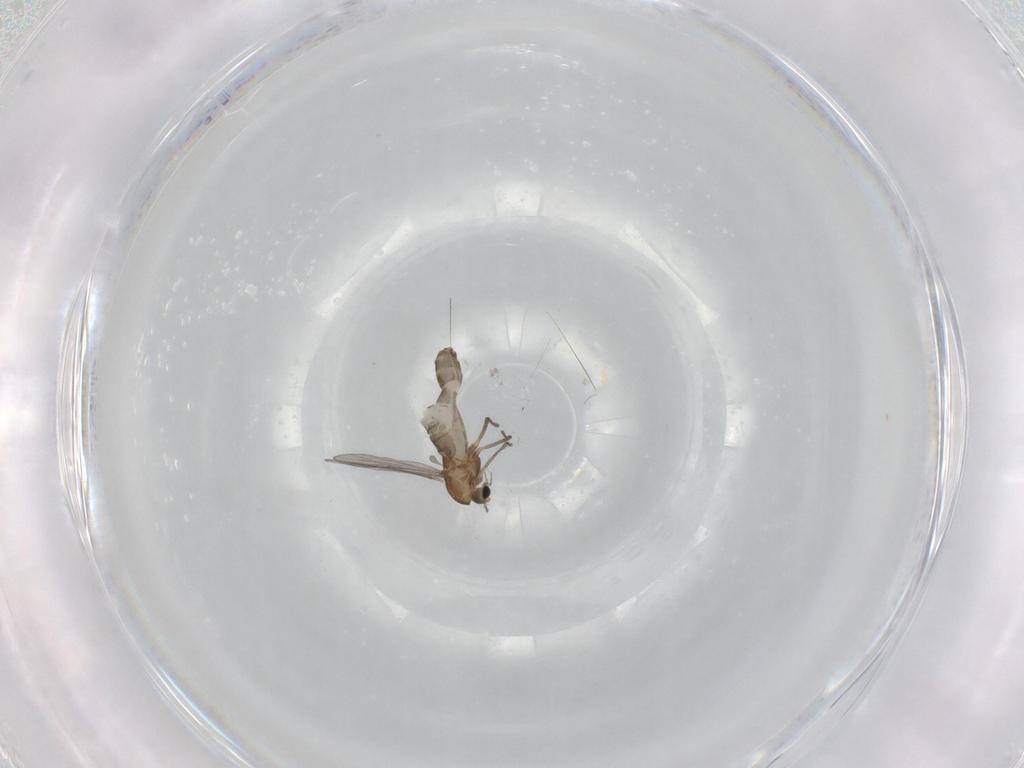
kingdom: Animalia
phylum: Arthropoda
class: Insecta
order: Diptera
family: Chironomidae
